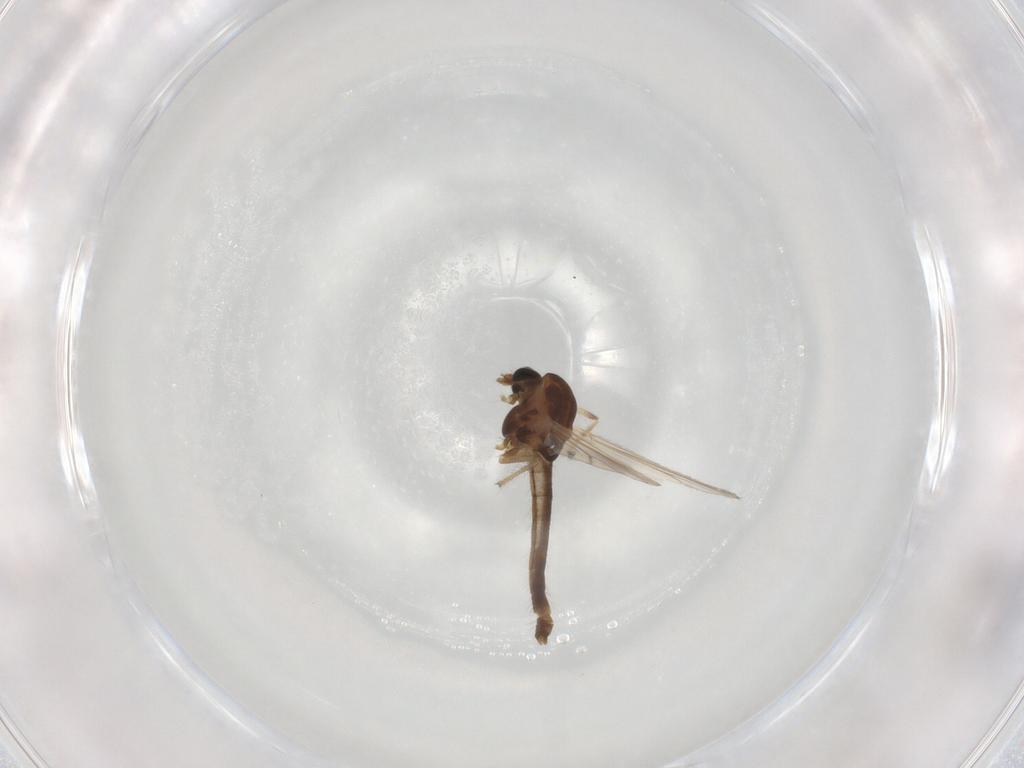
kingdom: Animalia
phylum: Arthropoda
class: Insecta
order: Diptera
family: Chironomidae
